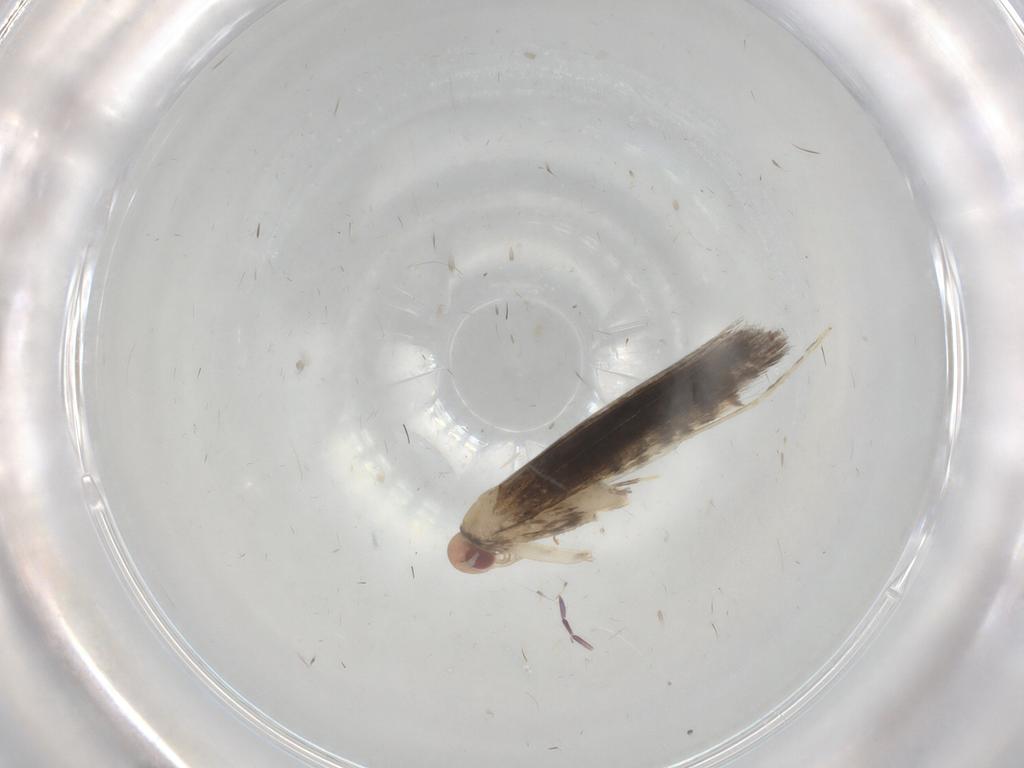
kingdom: Animalia
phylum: Arthropoda
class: Insecta
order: Lepidoptera
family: Gracillariidae
